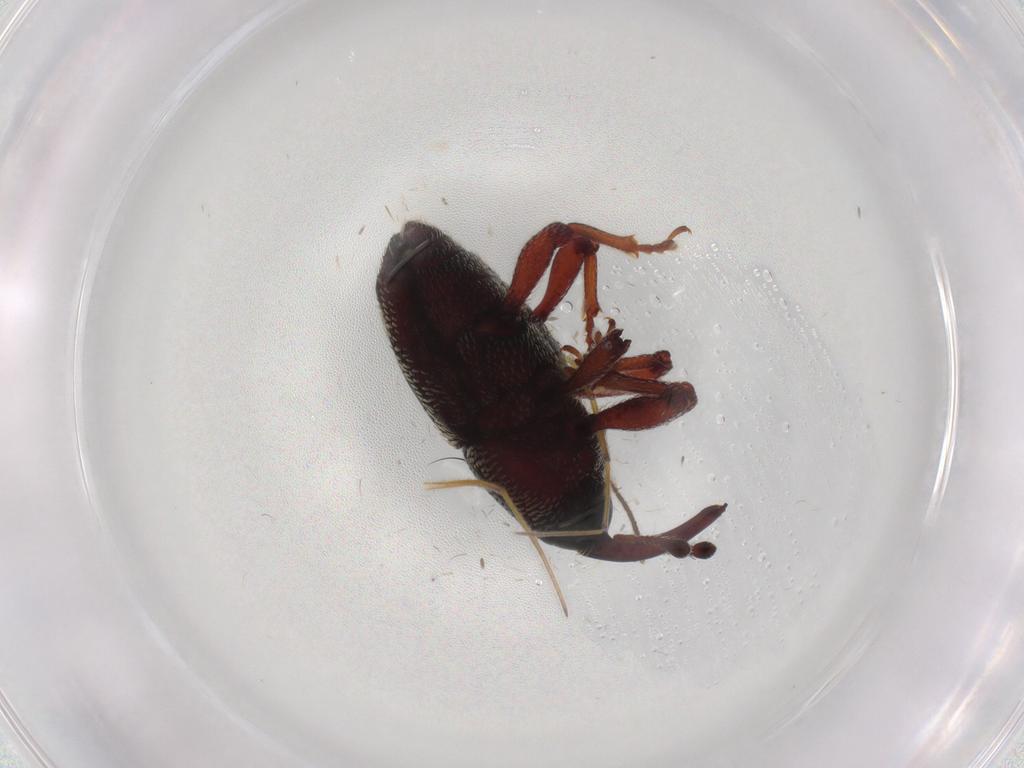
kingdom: Animalia
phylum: Arthropoda
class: Insecta
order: Coleoptera
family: Curculionidae
